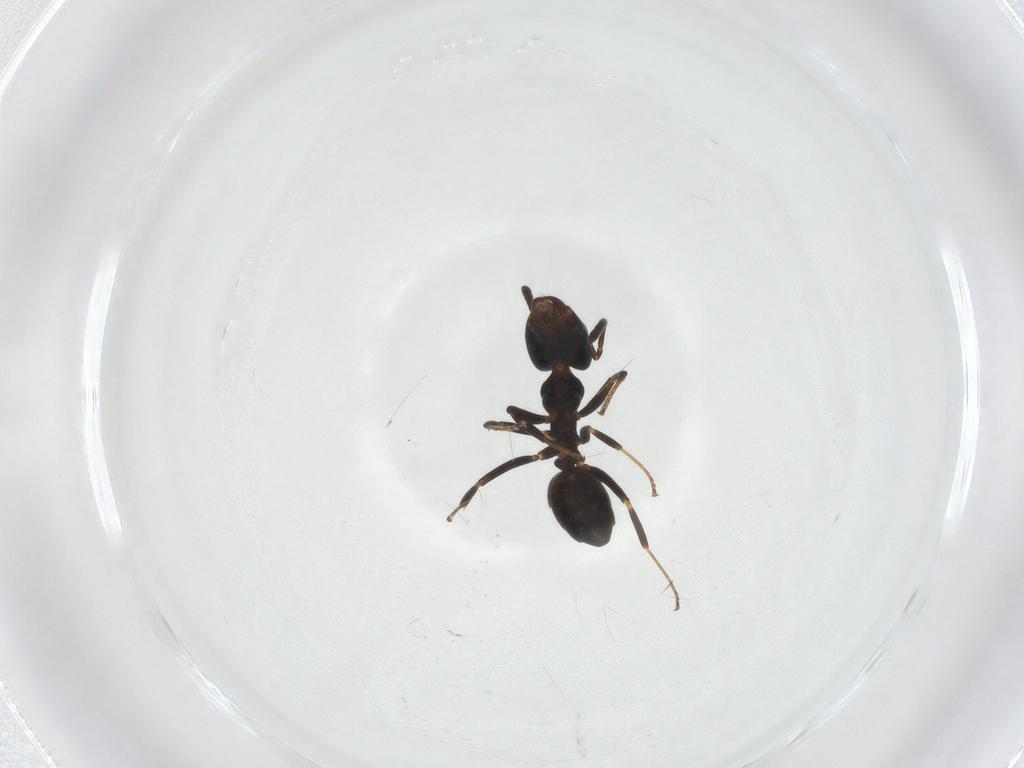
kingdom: Animalia
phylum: Arthropoda
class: Insecta
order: Hymenoptera
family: Formicidae
